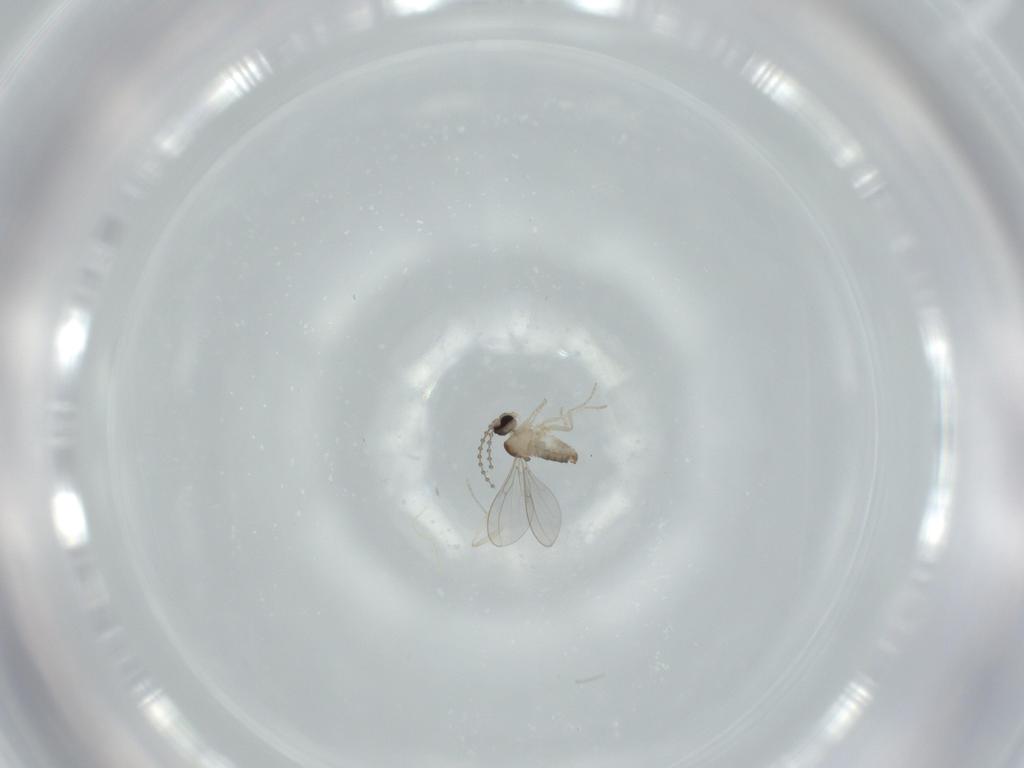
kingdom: Animalia
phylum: Arthropoda
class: Insecta
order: Diptera
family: Cecidomyiidae
